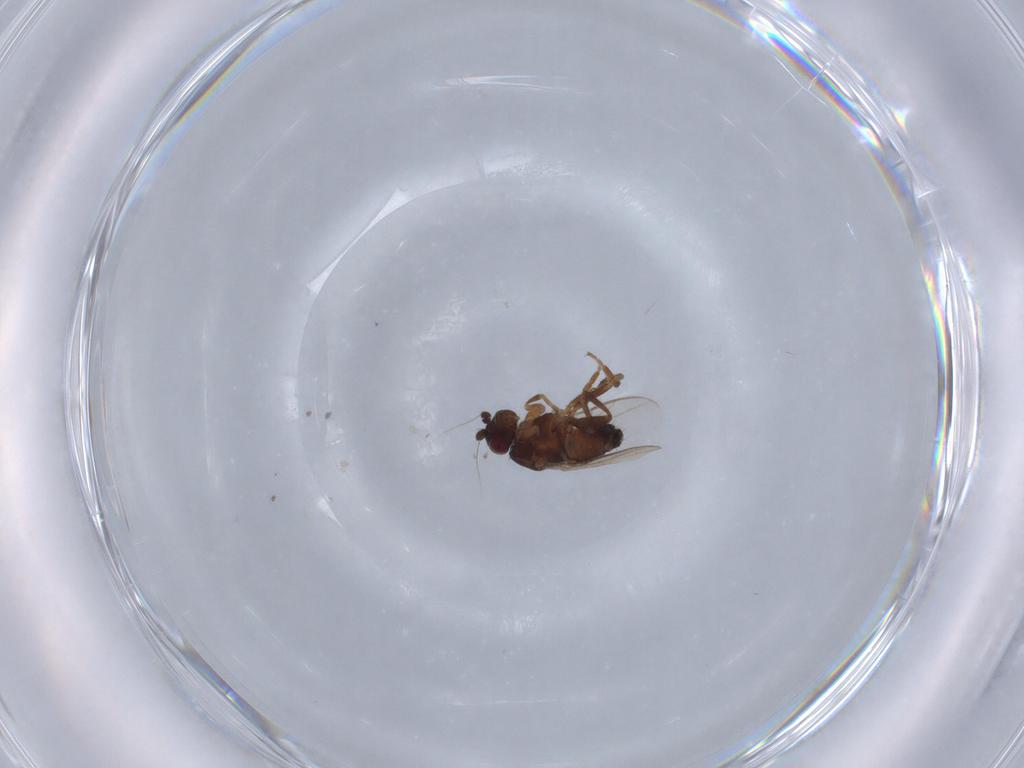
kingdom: Animalia
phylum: Arthropoda
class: Insecta
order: Diptera
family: Sphaeroceridae
